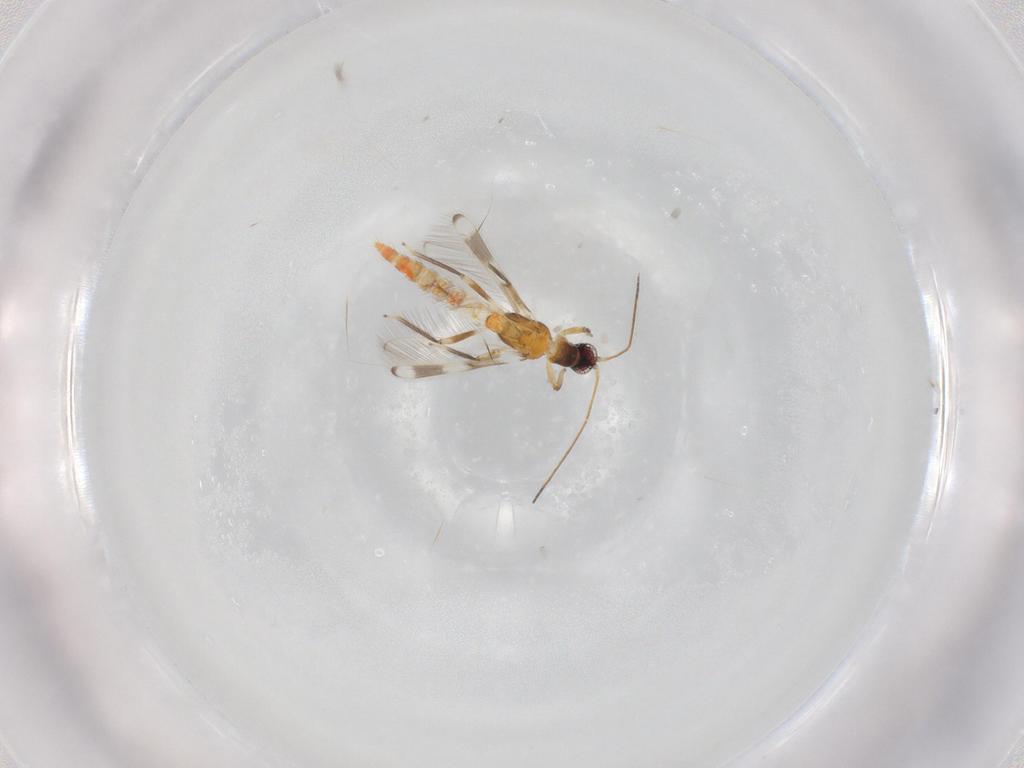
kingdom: Animalia
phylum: Arthropoda
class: Insecta
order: Thysanoptera
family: Aeolothripidae
